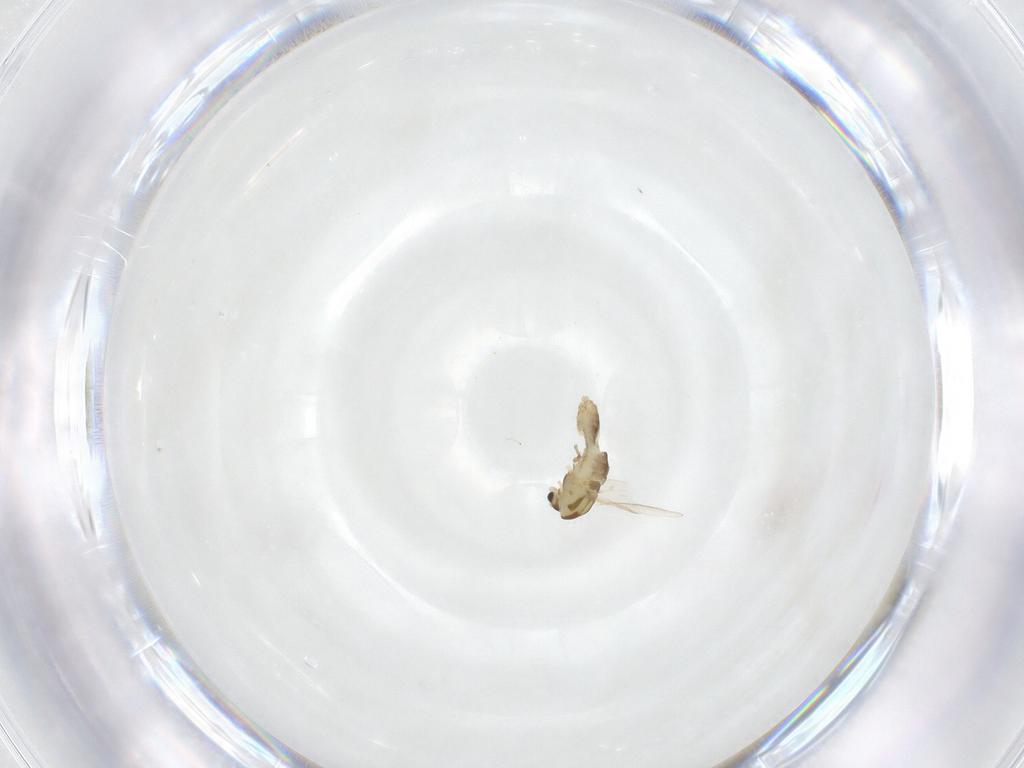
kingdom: Animalia
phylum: Arthropoda
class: Insecta
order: Diptera
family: Chironomidae
